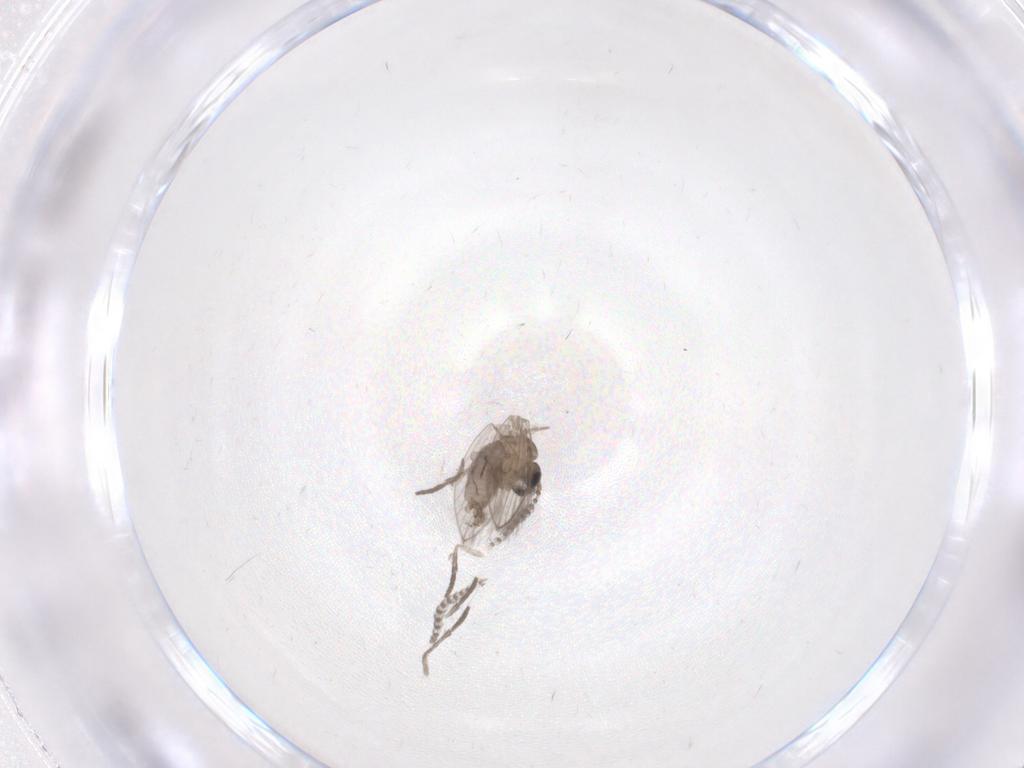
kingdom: Animalia
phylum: Arthropoda
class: Insecta
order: Diptera
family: Psychodidae
